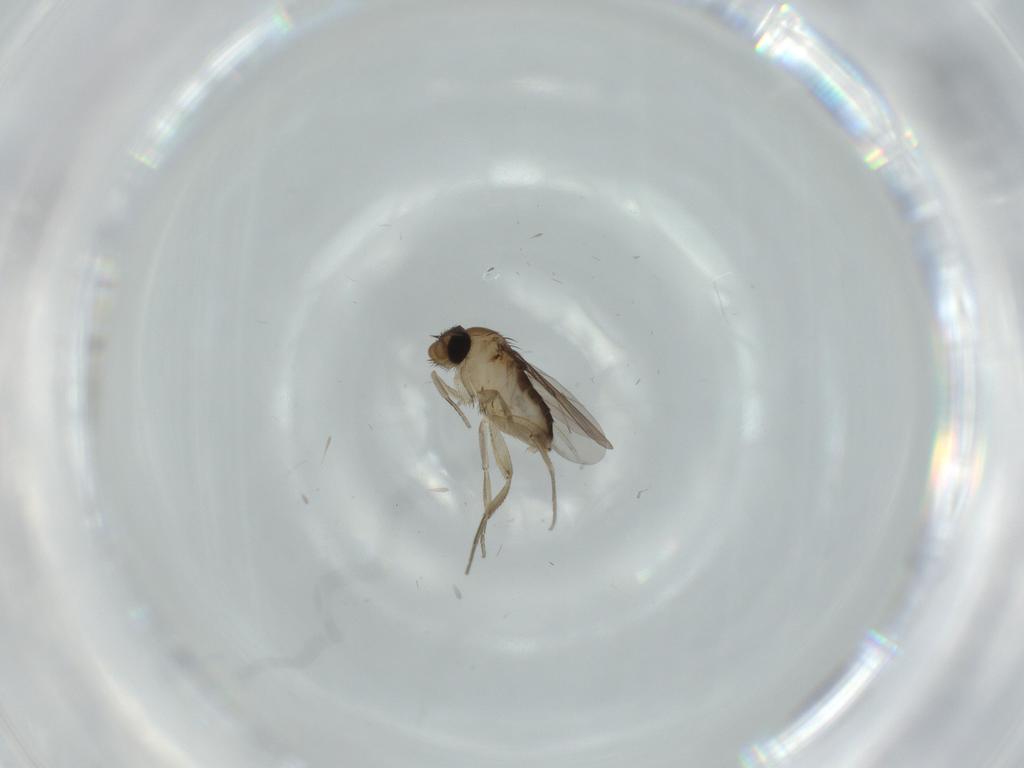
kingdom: Animalia
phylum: Arthropoda
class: Insecta
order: Diptera
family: Phoridae
